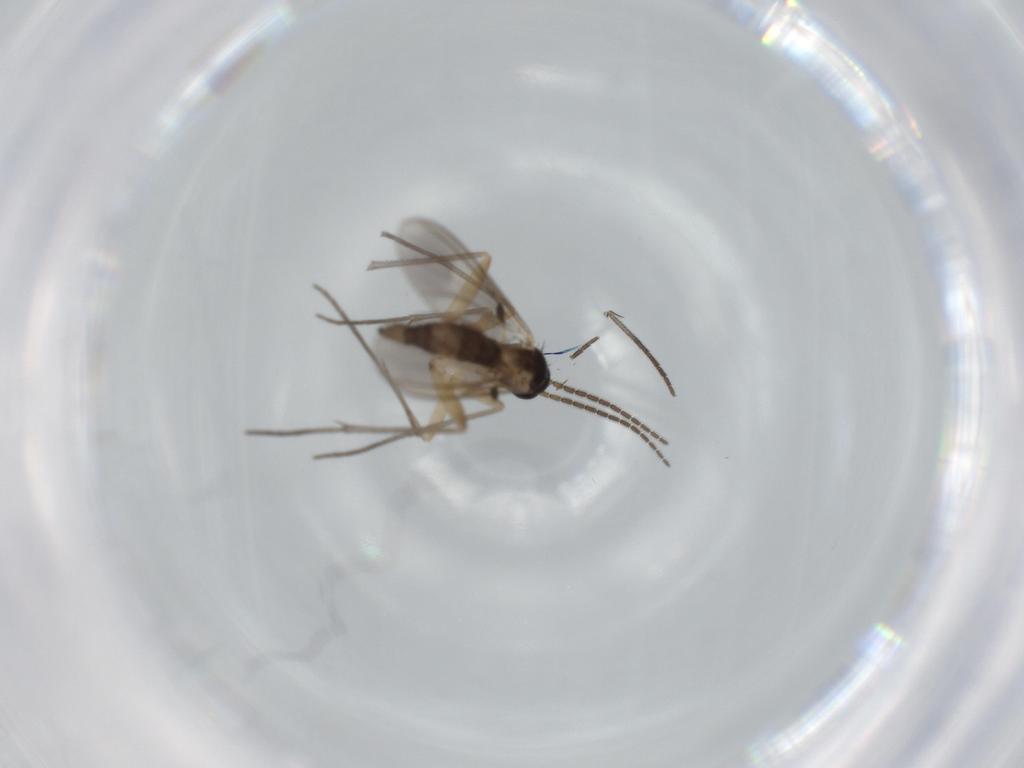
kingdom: Animalia
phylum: Arthropoda
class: Insecta
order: Diptera
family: Sciaridae
